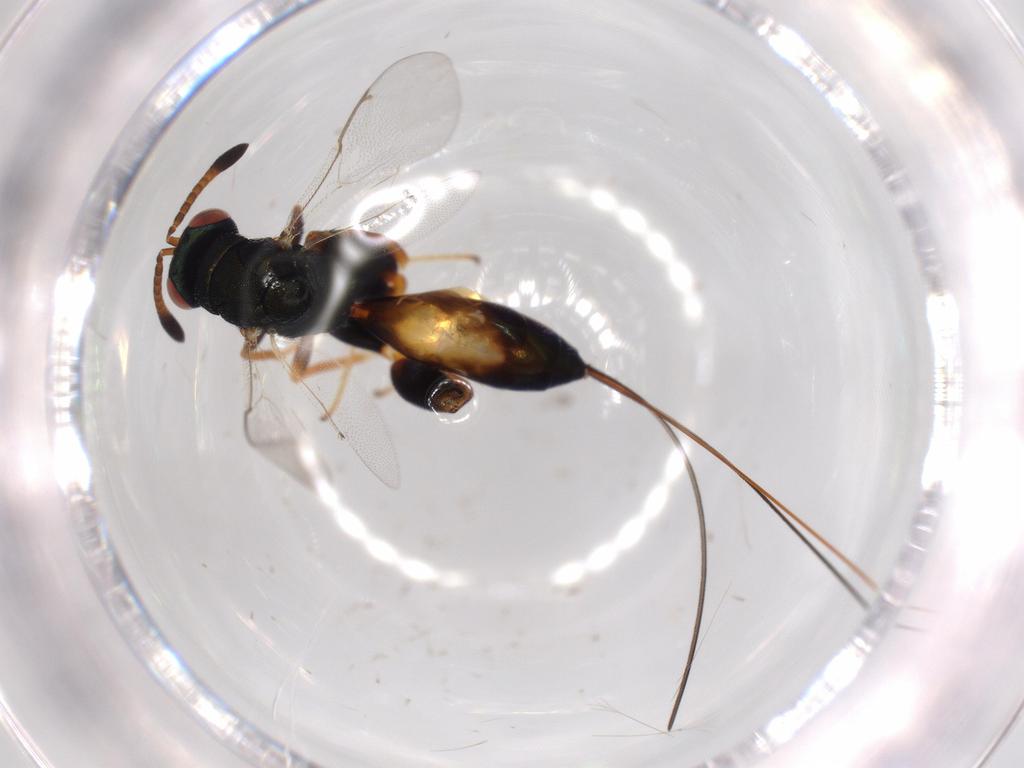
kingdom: Animalia
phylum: Arthropoda
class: Insecta
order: Hymenoptera
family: Torymidae
